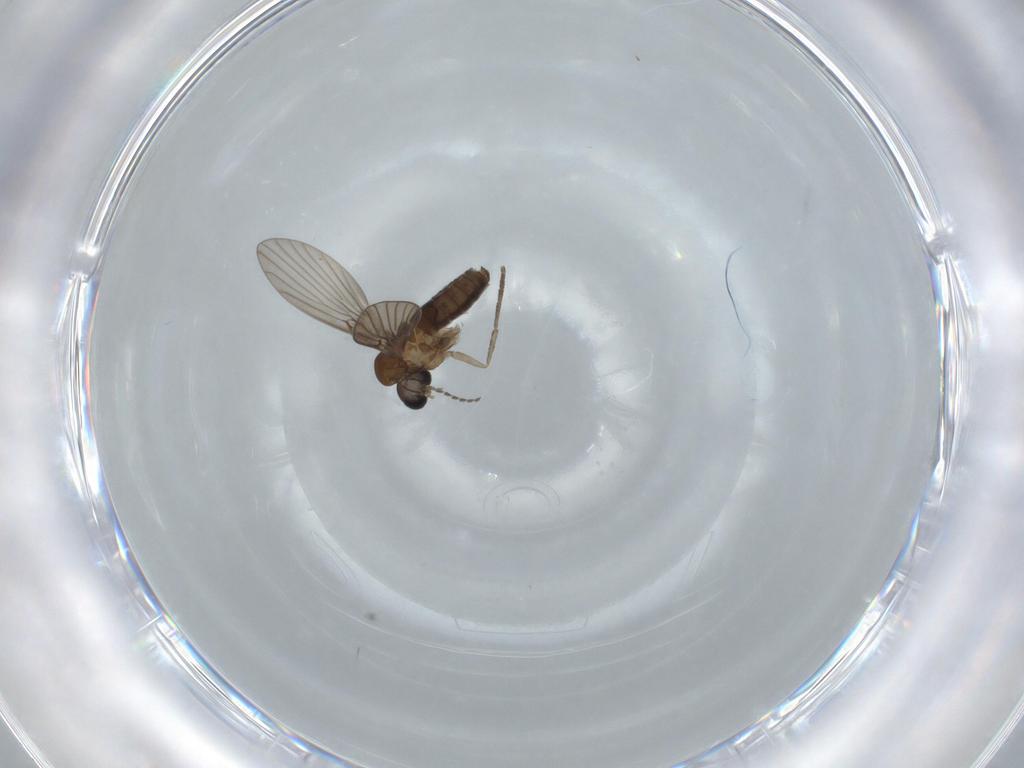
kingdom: Animalia
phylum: Arthropoda
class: Insecta
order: Diptera
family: Psychodidae
